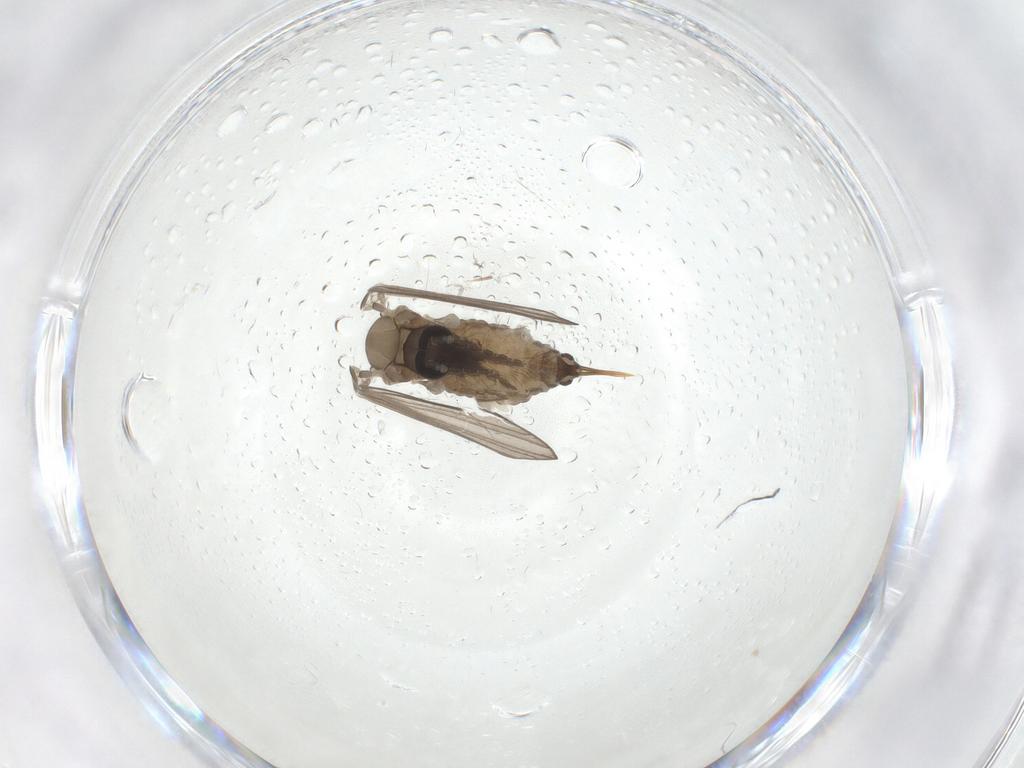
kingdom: Animalia
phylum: Arthropoda
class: Insecta
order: Diptera
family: Psychodidae
